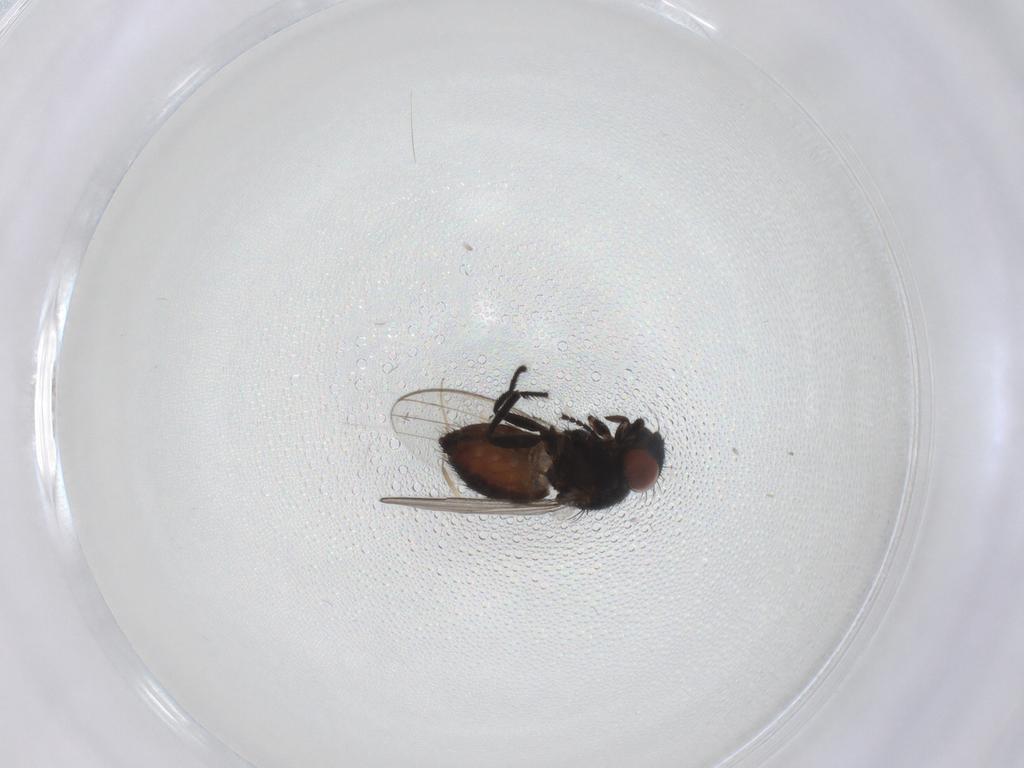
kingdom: Animalia
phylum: Arthropoda
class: Insecta
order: Diptera
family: Milichiidae
